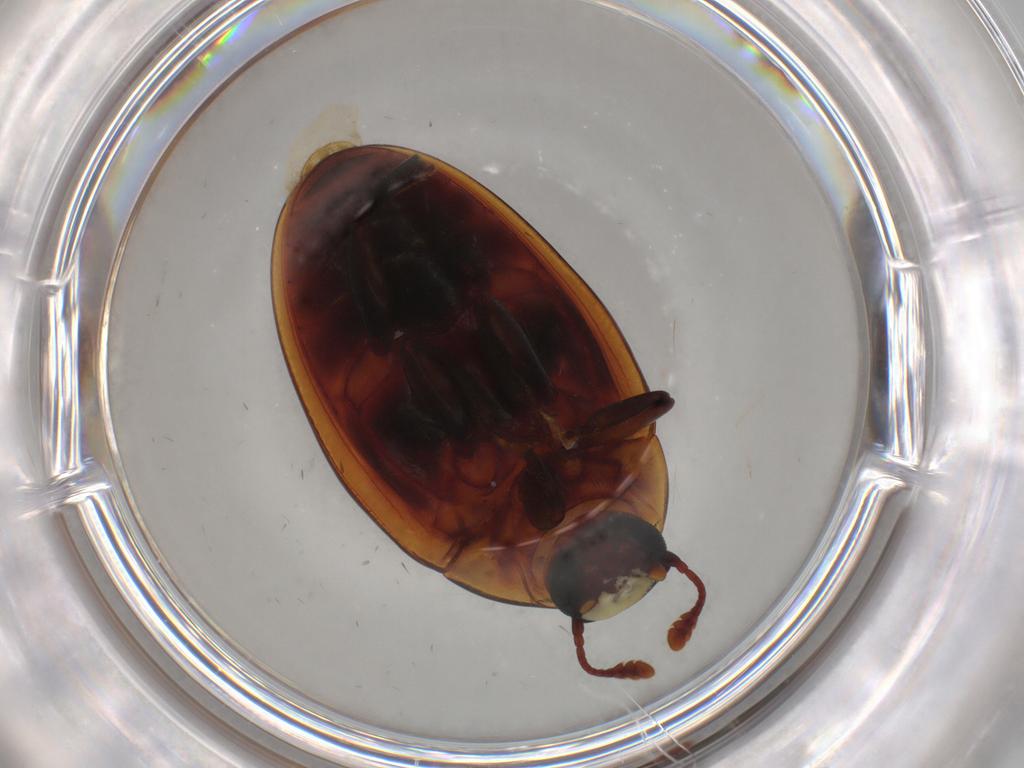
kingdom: Animalia
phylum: Arthropoda
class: Insecta
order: Coleoptera
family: Zopheridae
